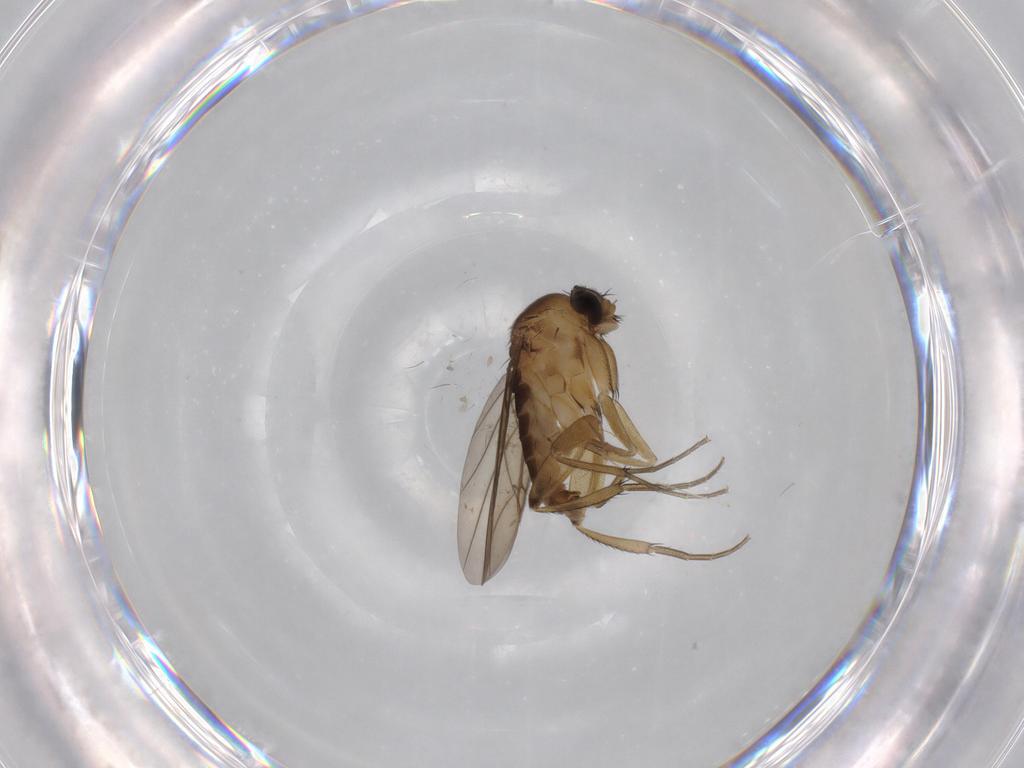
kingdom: Animalia
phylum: Arthropoda
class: Insecta
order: Diptera
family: Phoridae
